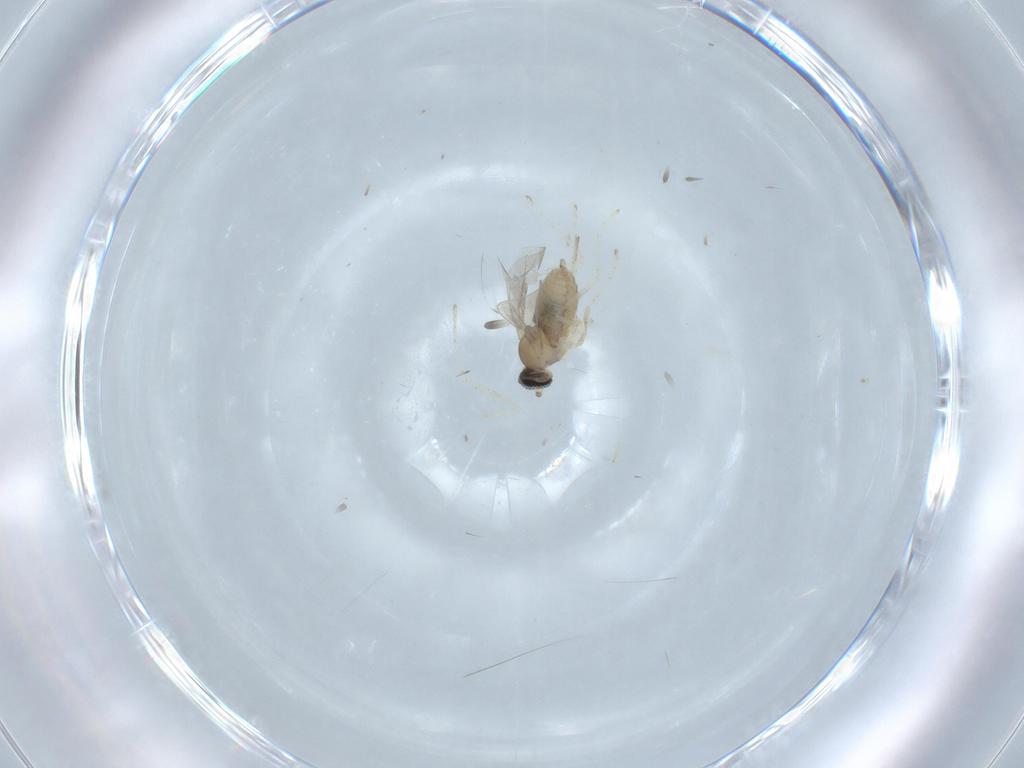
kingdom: Animalia
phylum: Arthropoda
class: Insecta
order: Diptera
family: Cecidomyiidae
